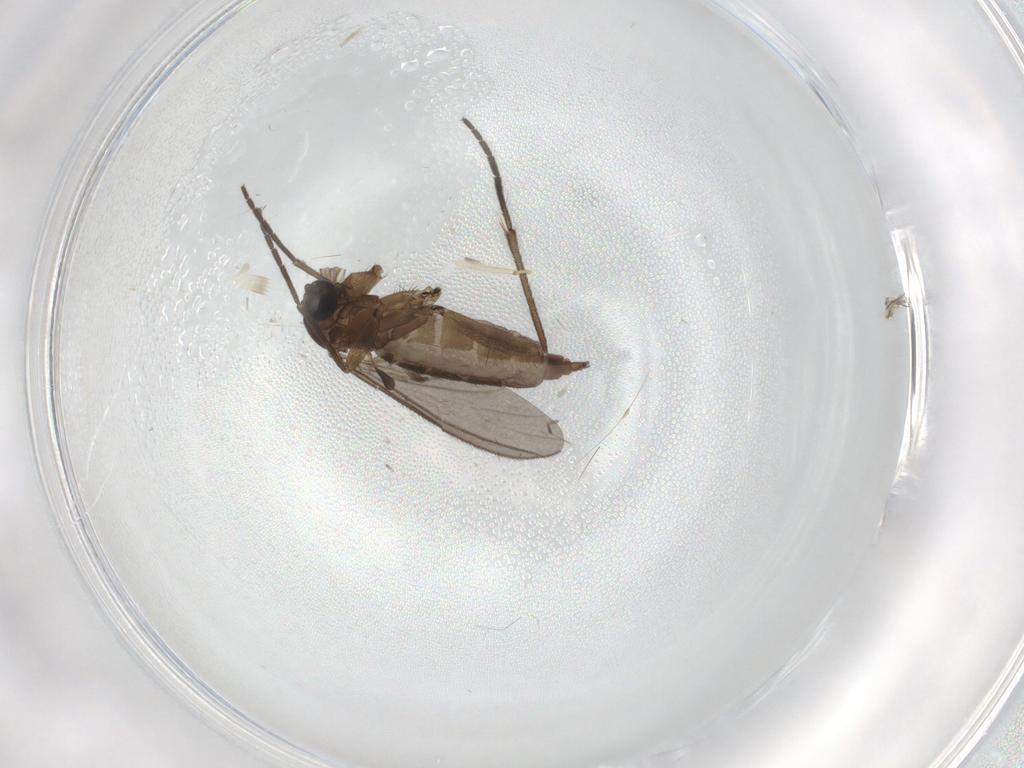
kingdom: Animalia
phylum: Arthropoda
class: Insecta
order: Diptera
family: Chironomidae
